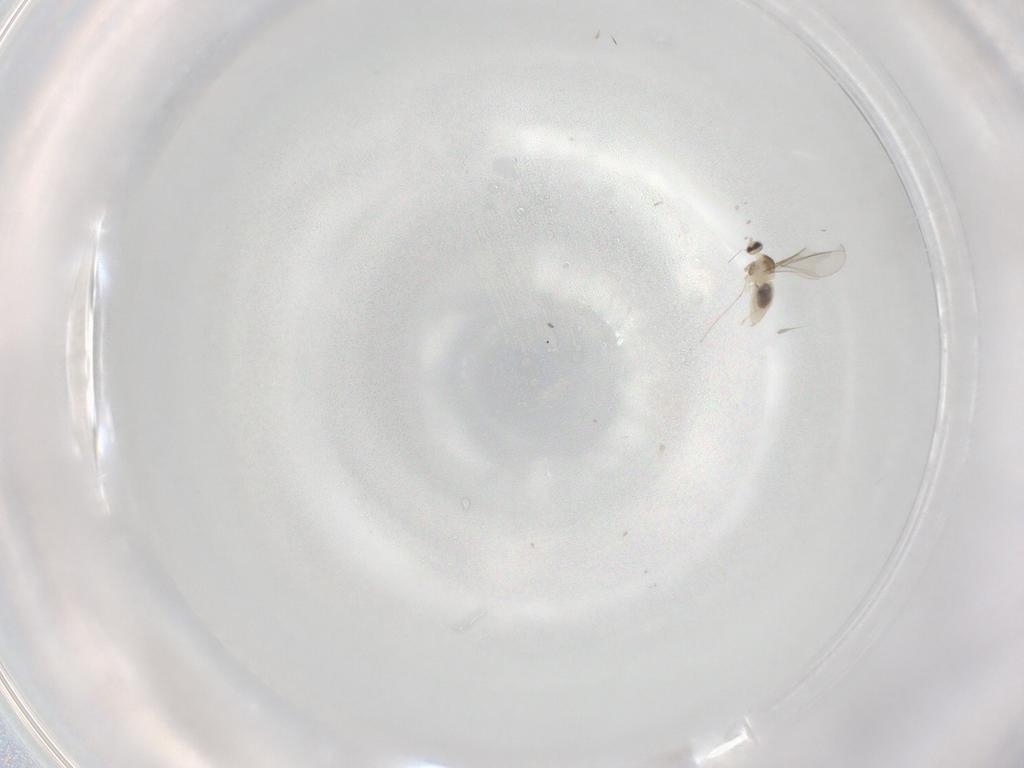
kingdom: Animalia
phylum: Arthropoda
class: Insecta
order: Diptera
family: Cecidomyiidae
